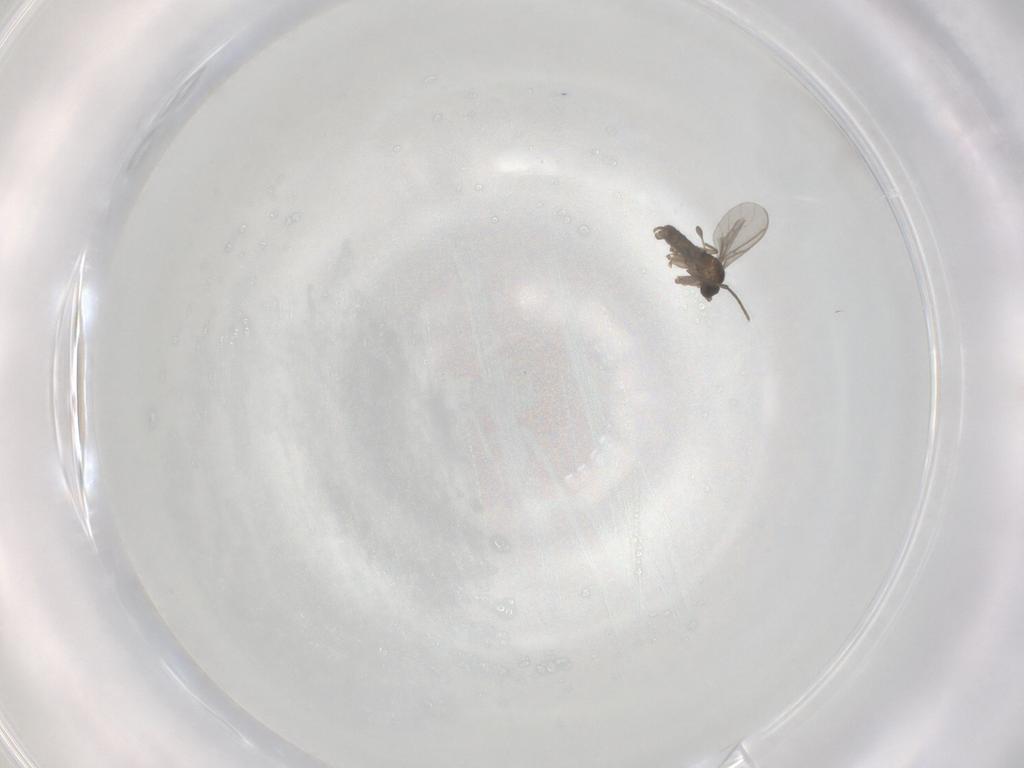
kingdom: Animalia
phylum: Arthropoda
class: Insecta
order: Diptera
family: Sciaridae
